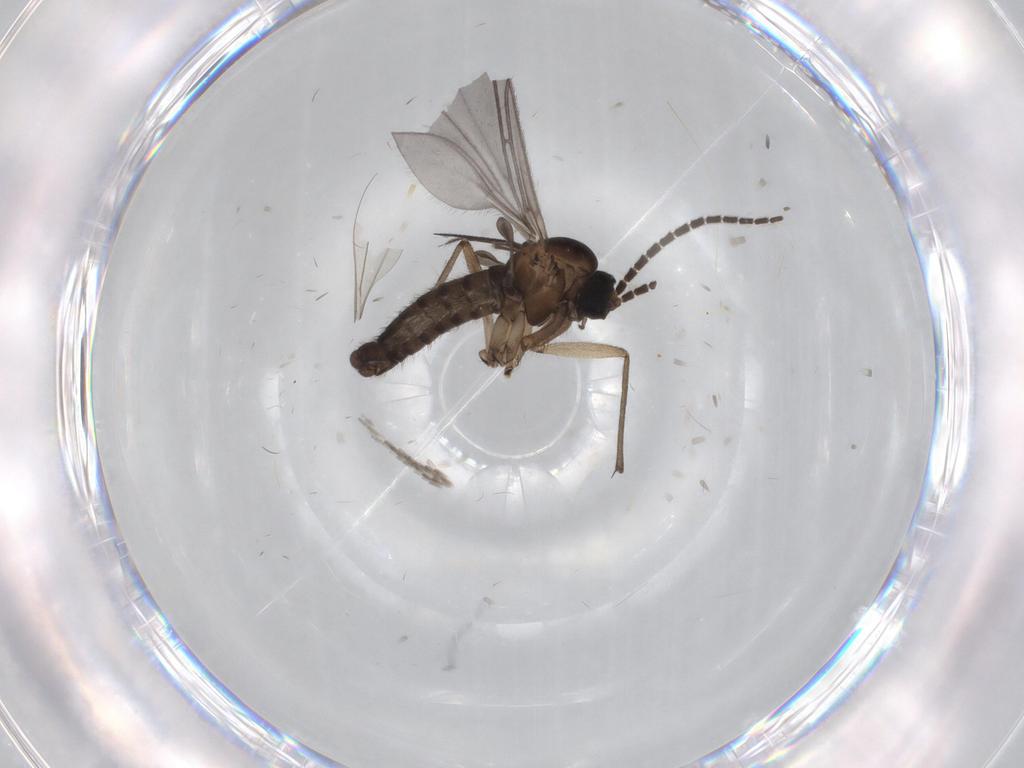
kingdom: Animalia
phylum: Arthropoda
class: Insecta
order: Diptera
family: Sciaridae
